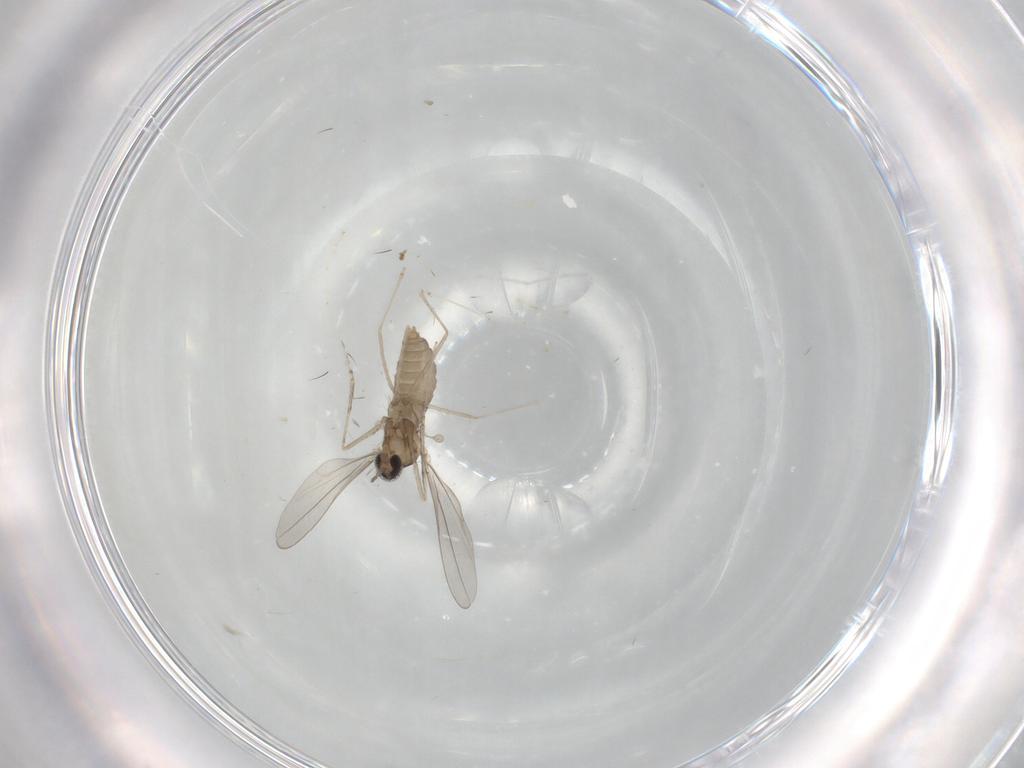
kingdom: Animalia
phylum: Arthropoda
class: Insecta
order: Diptera
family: Cecidomyiidae
